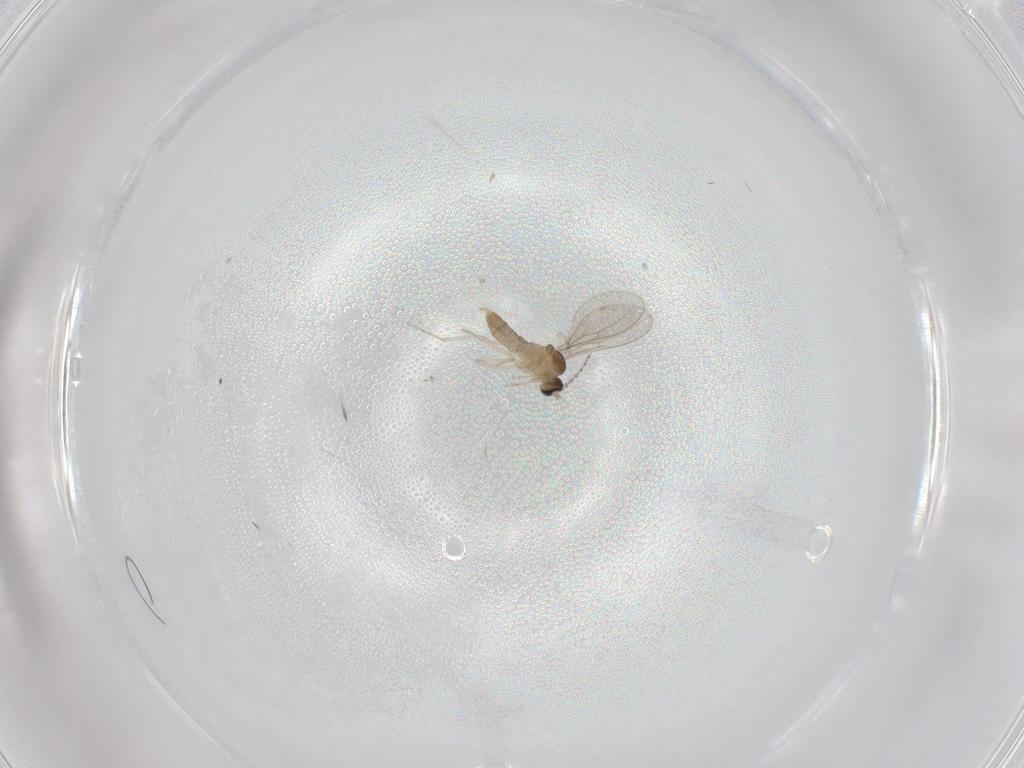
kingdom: Animalia
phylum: Arthropoda
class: Insecta
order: Diptera
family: Cecidomyiidae
